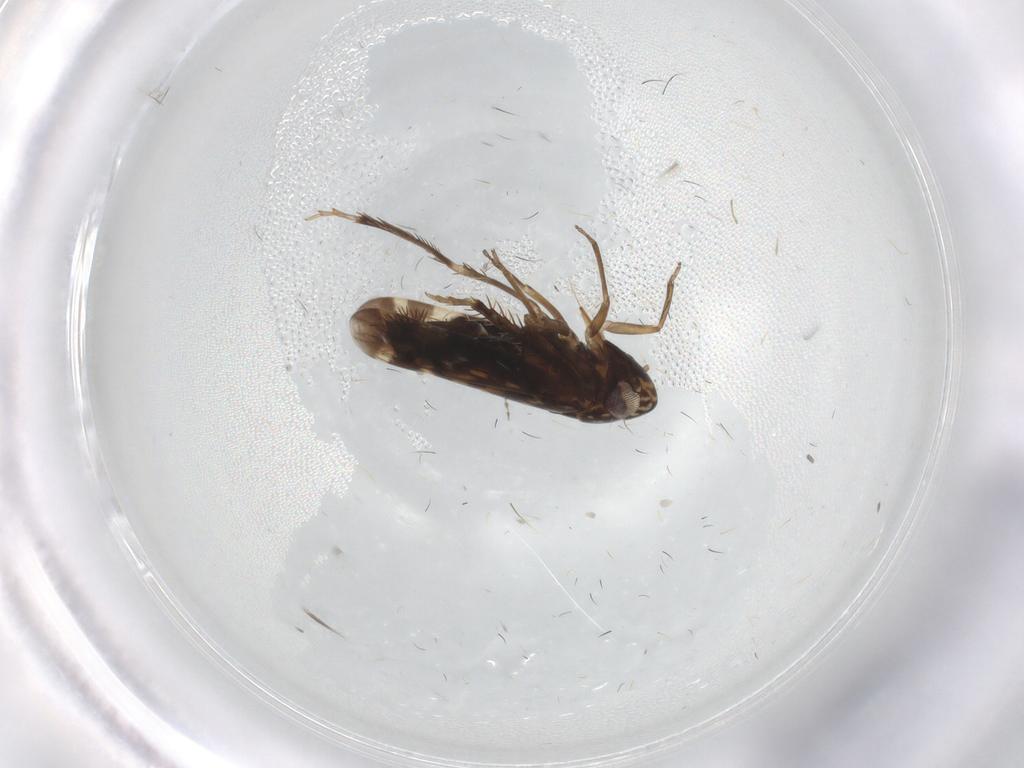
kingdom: Animalia
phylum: Arthropoda
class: Insecta
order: Hemiptera
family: Cicadellidae
